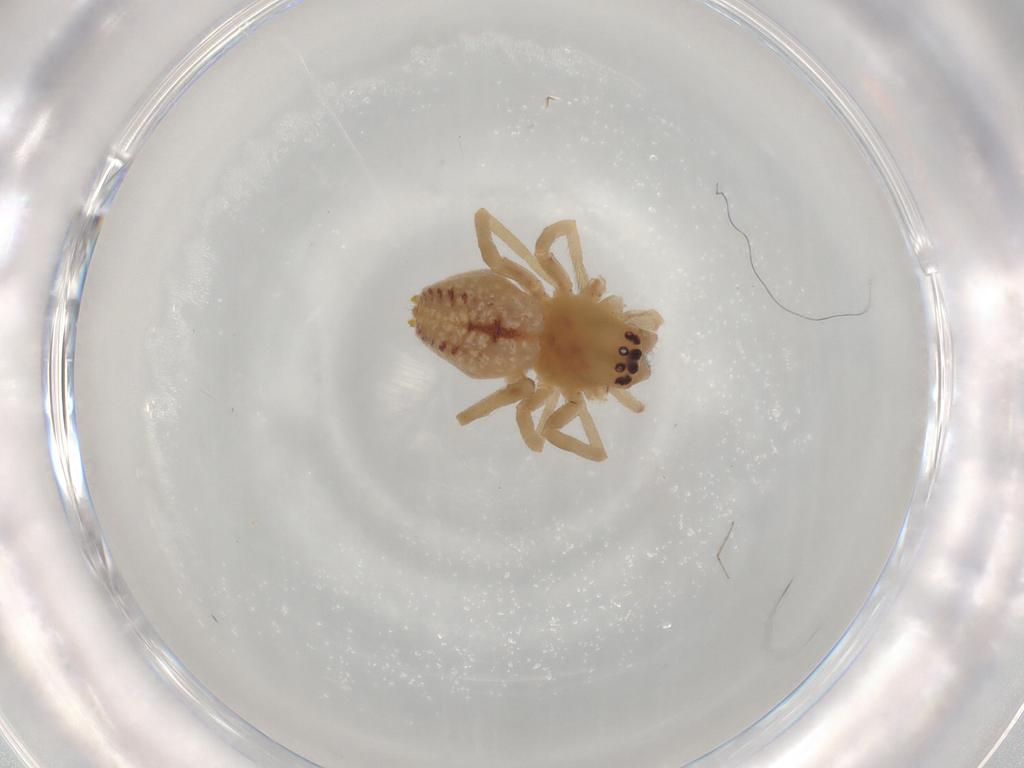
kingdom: Animalia
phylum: Arthropoda
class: Arachnida
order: Araneae
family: Cheiracanthiidae
